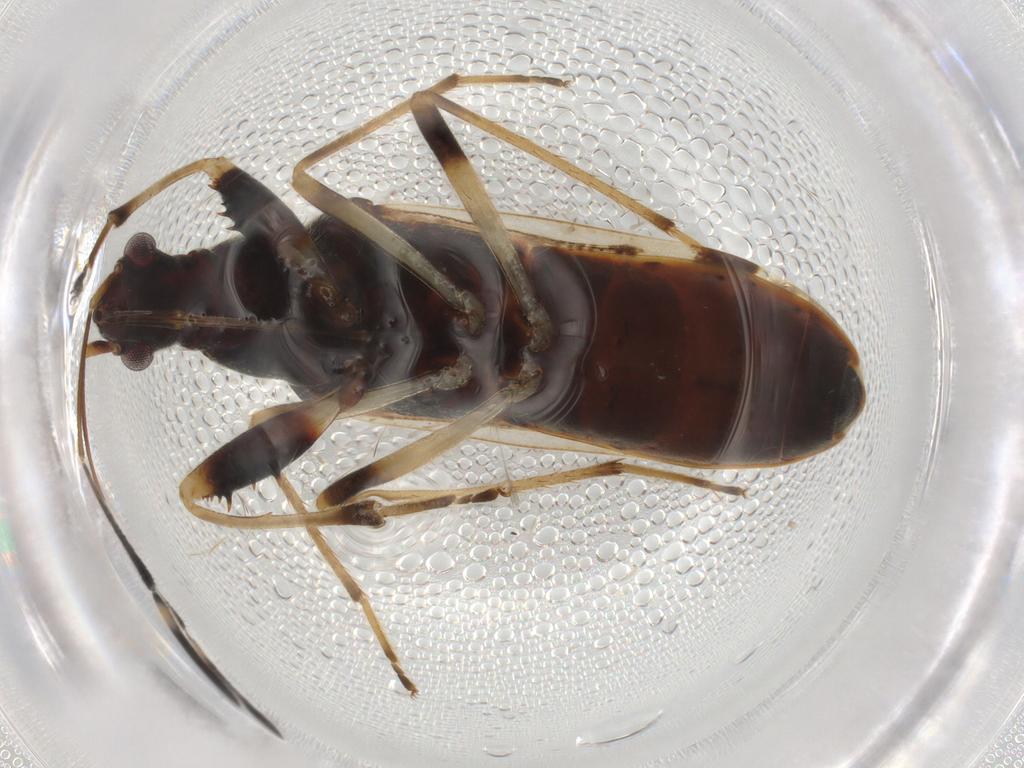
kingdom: Animalia
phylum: Arthropoda
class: Insecta
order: Hemiptera
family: Rhyparochromidae
